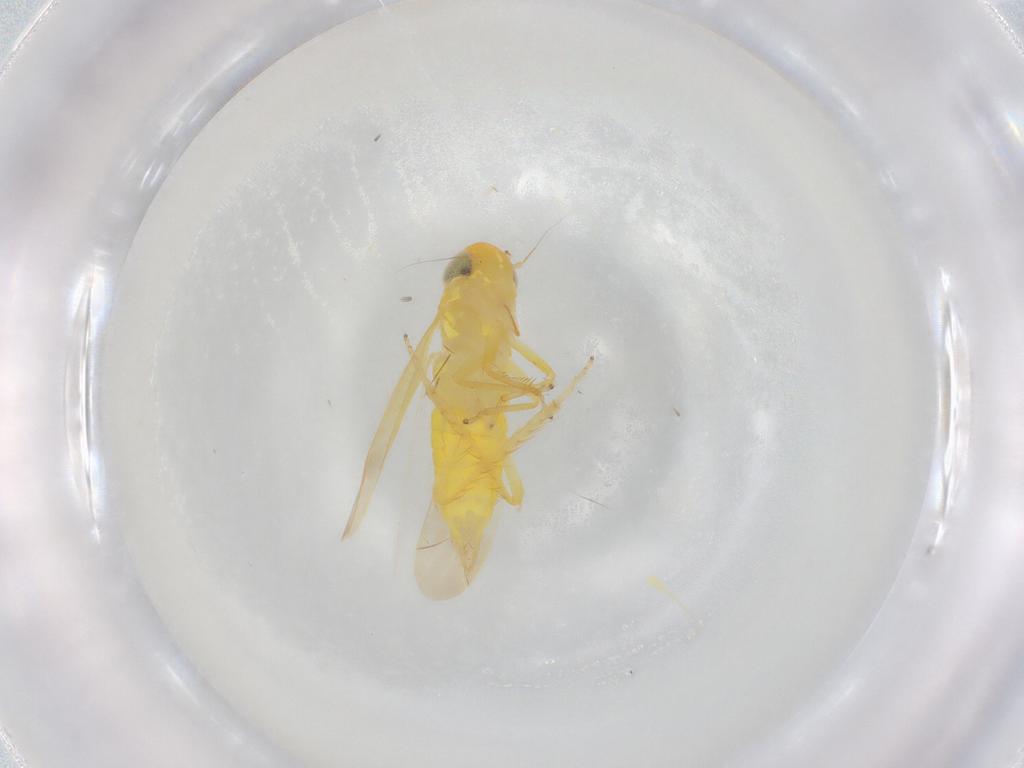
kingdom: Animalia
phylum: Arthropoda
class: Insecta
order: Hemiptera
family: Cicadellidae
